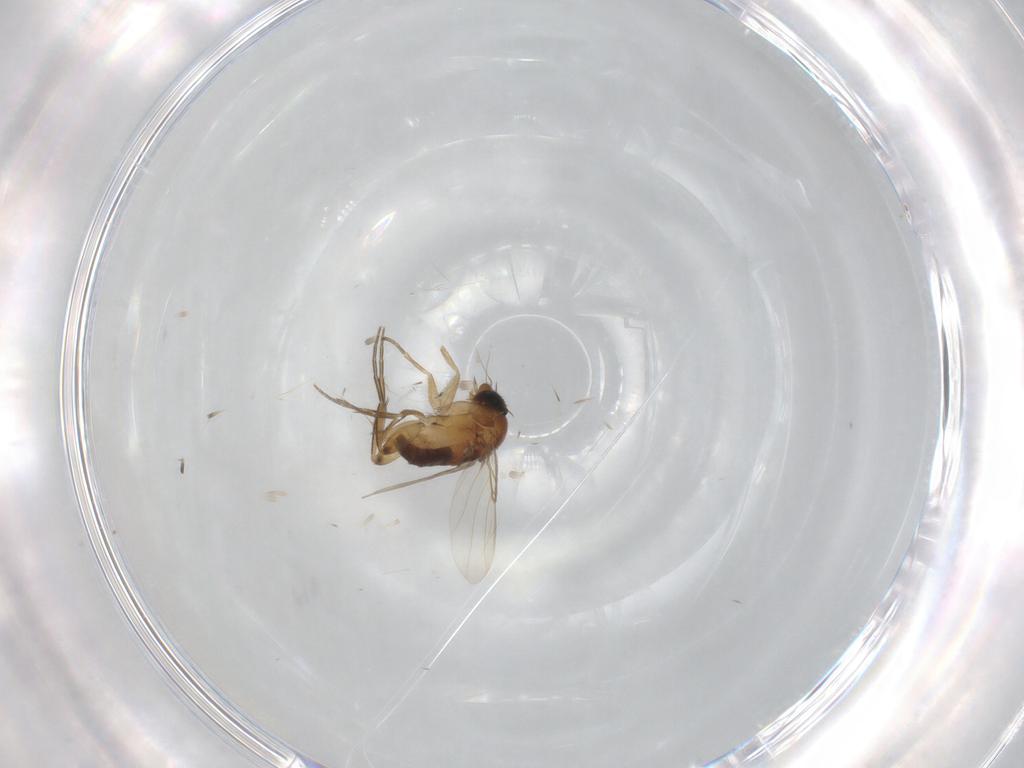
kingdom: Animalia
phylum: Arthropoda
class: Insecta
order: Diptera
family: Phoridae
